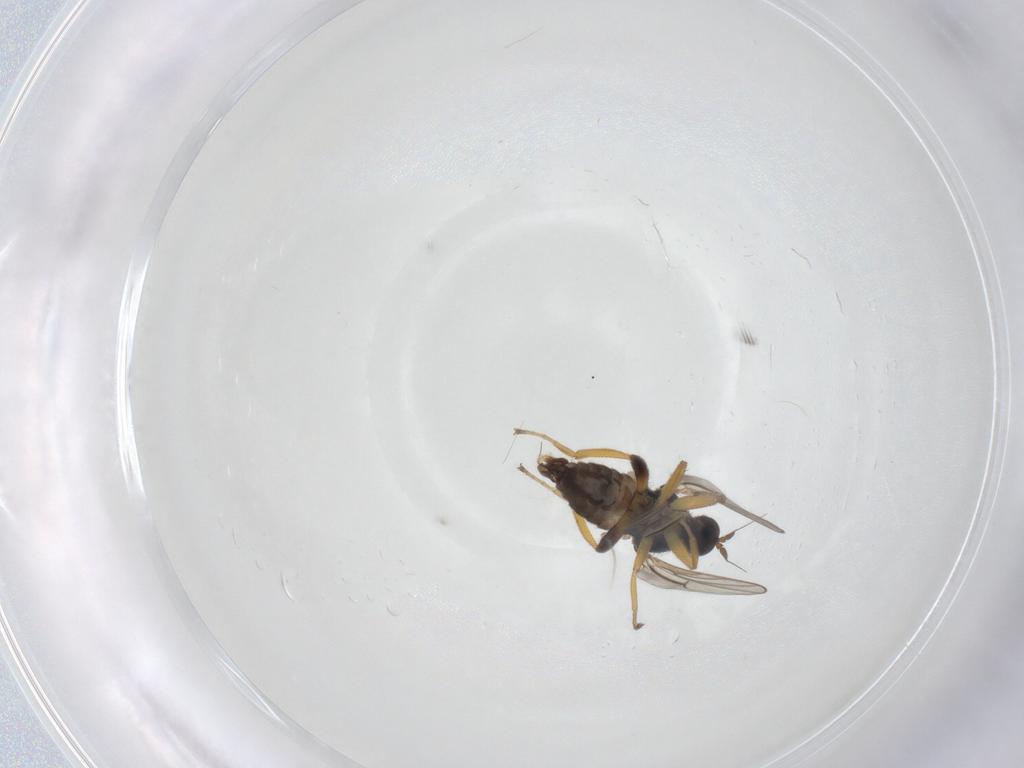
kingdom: Animalia
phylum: Arthropoda
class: Insecta
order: Diptera
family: Hybotidae
